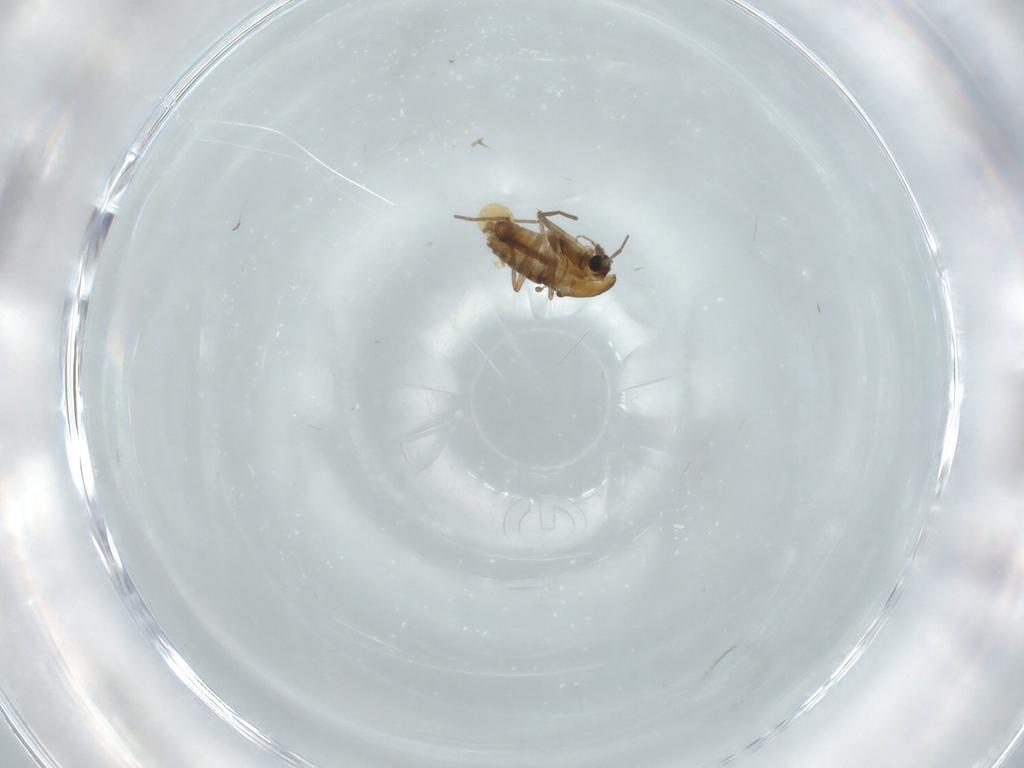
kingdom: Animalia
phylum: Arthropoda
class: Insecta
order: Diptera
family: Chironomidae
